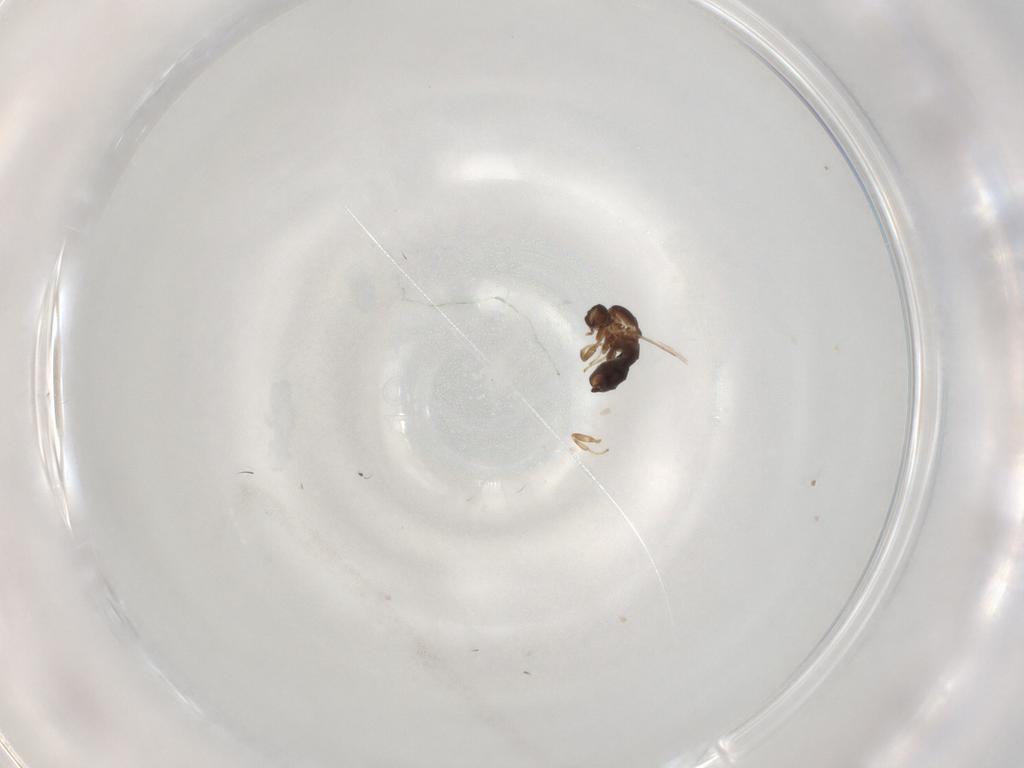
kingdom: Animalia
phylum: Arthropoda
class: Insecta
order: Diptera
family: Scatopsidae
